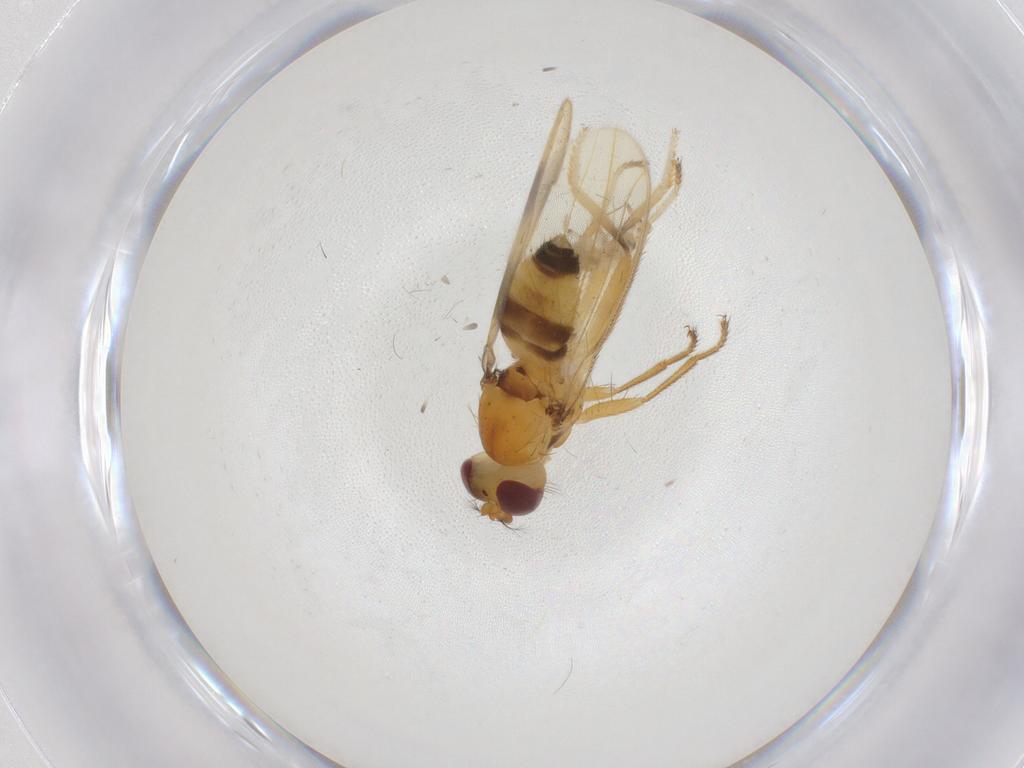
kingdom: Animalia
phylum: Arthropoda
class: Insecta
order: Diptera
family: Periscelididae
